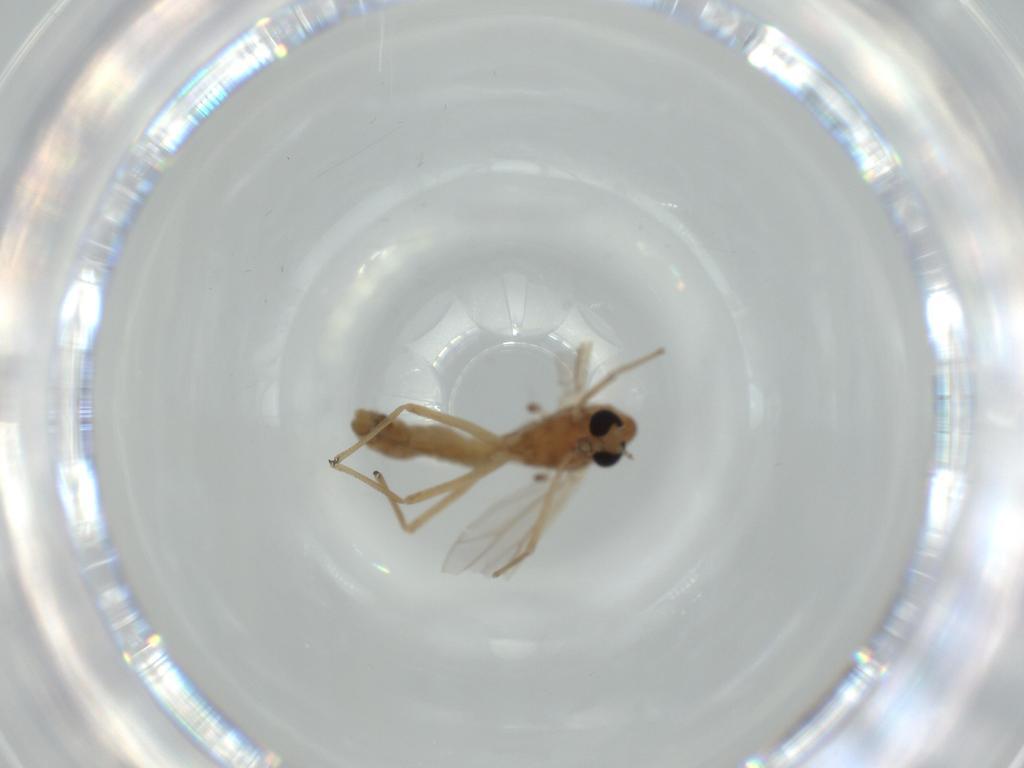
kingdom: Animalia
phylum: Arthropoda
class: Insecta
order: Diptera
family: Chironomidae
